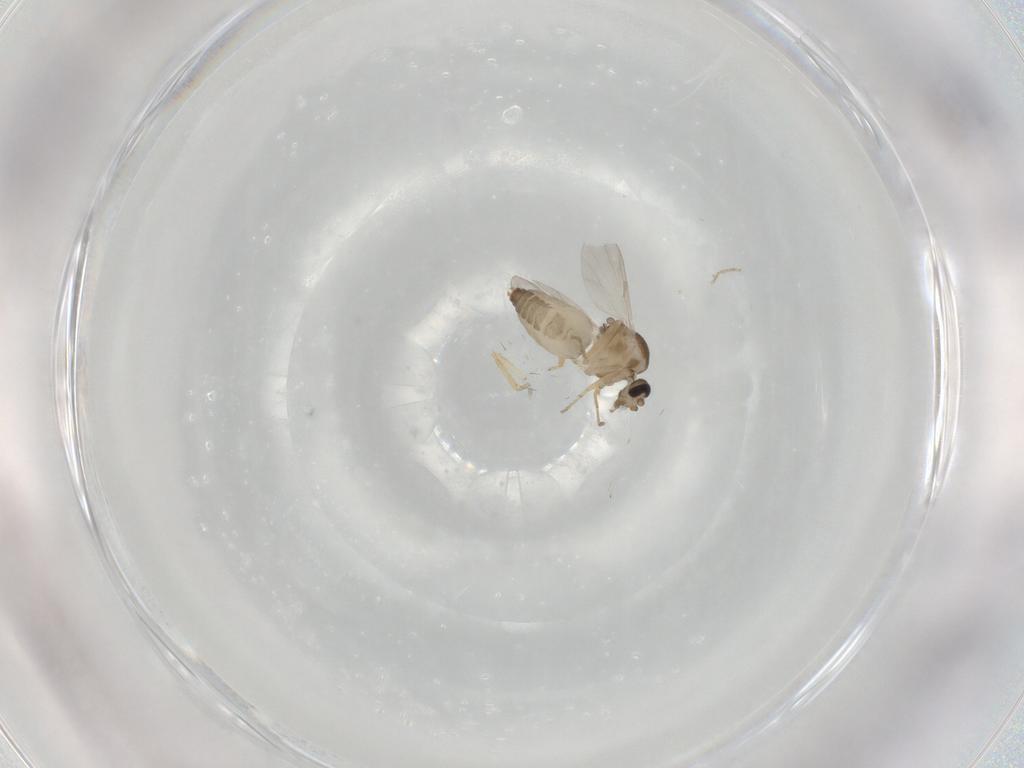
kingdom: Animalia
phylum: Arthropoda
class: Insecta
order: Diptera
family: Ceratopogonidae
